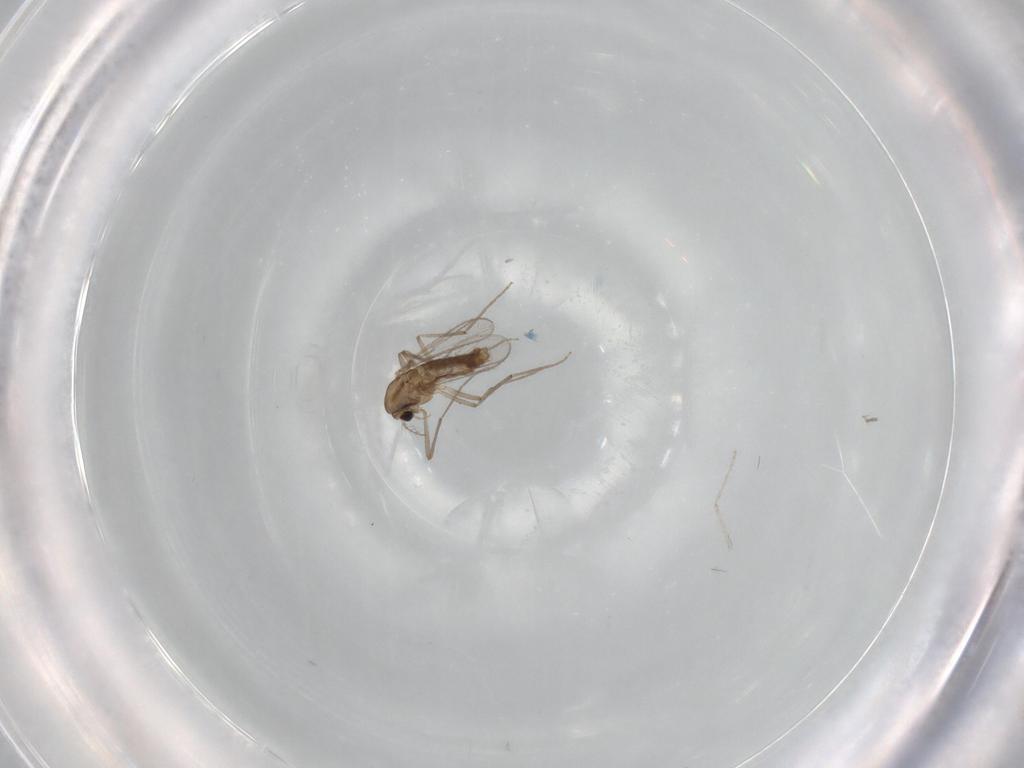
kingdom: Animalia
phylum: Arthropoda
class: Insecta
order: Diptera
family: Chironomidae
